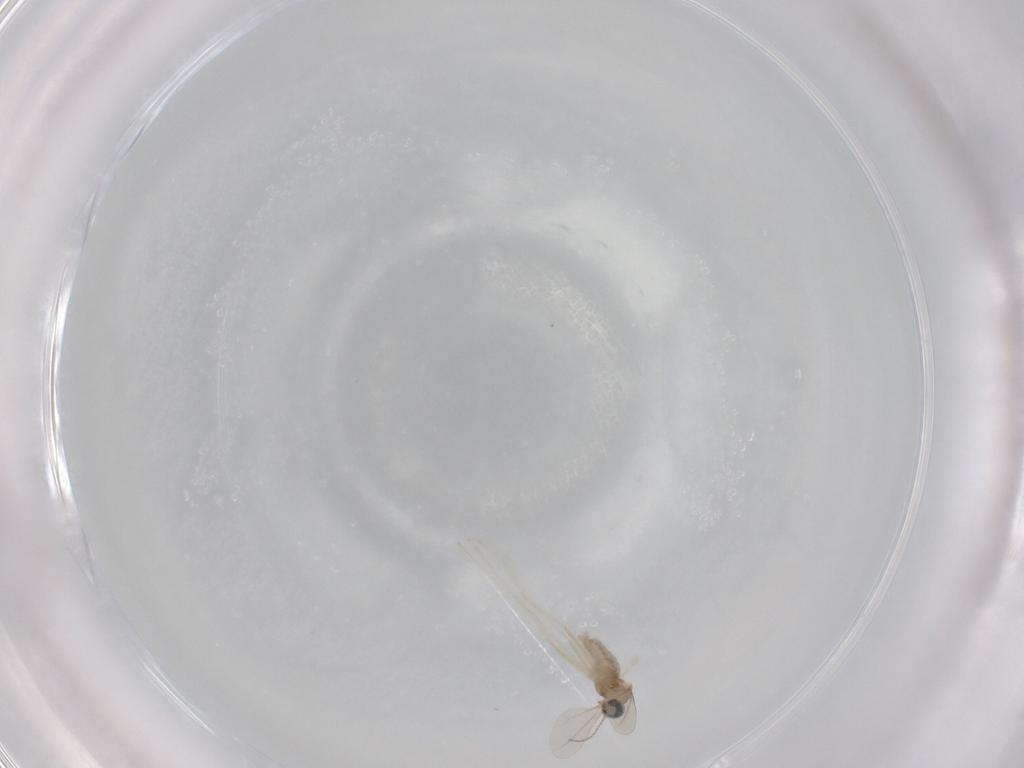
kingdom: Animalia
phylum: Arthropoda
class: Insecta
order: Diptera
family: Cecidomyiidae
